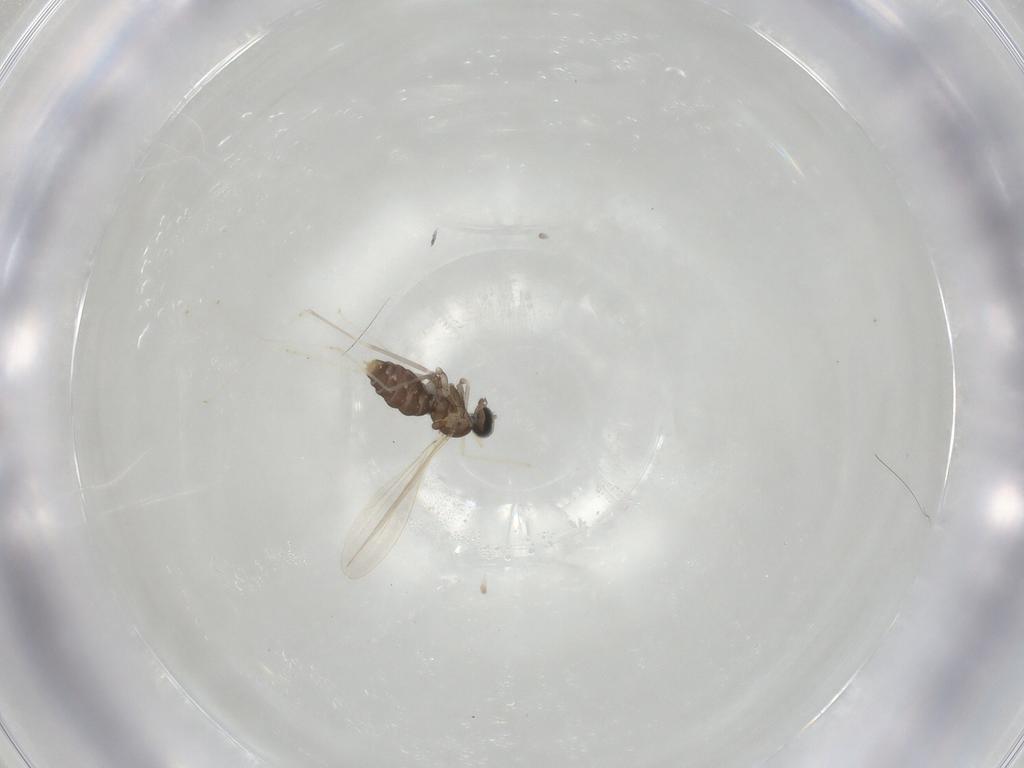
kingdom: Animalia
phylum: Arthropoda
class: Insecta
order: Diptera
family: Cecidomyiidae
